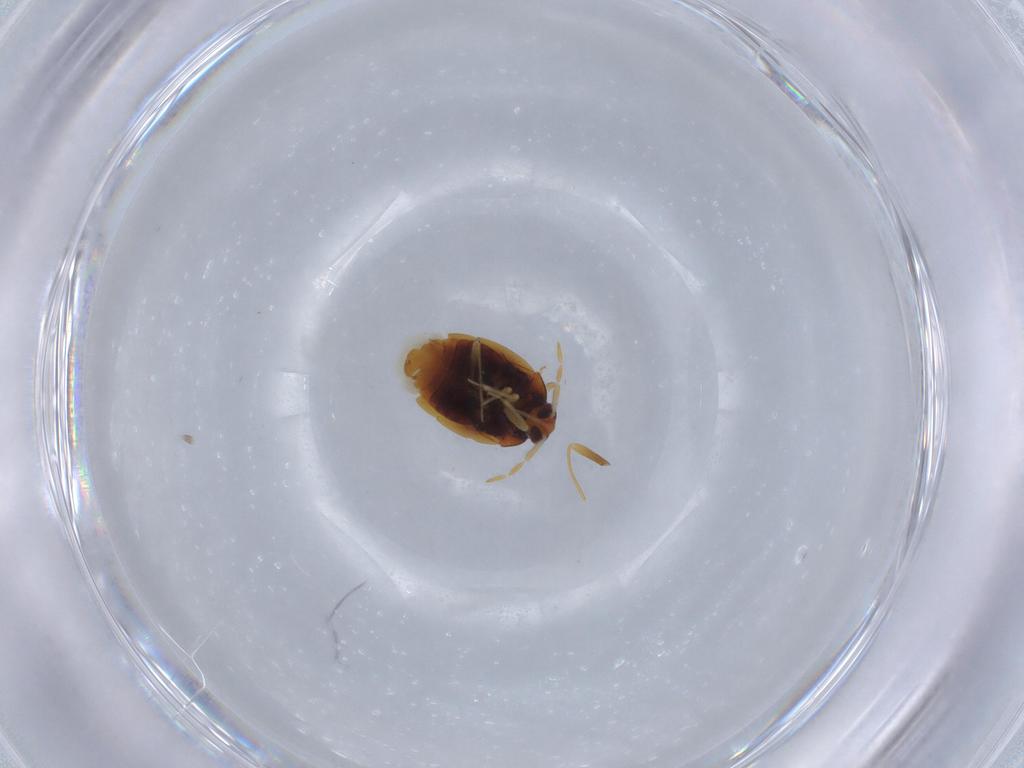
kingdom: Animalia
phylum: Arthropoda
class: Insecta
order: Hemiptera
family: Anthocoridae
